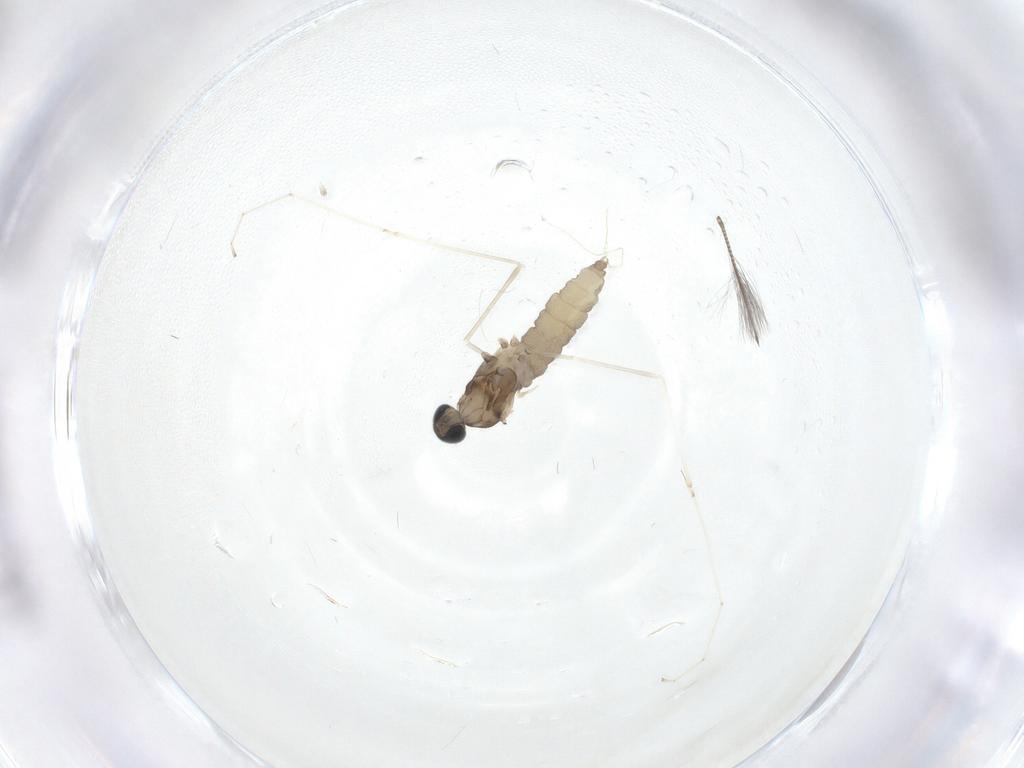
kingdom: Animalia
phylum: Arthropoda
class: Insecta
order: Diptera
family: Cecidomyiidae
